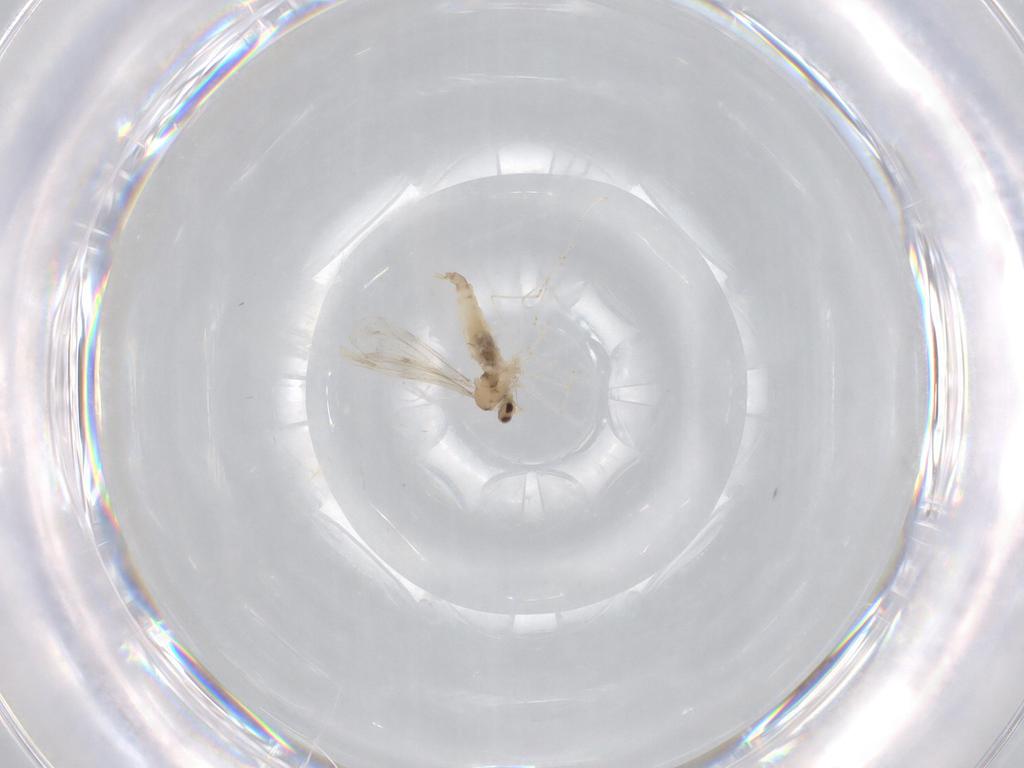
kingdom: Animalia
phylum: Arthropoda
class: Insecta
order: Diptera
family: Cecidomyiidae
